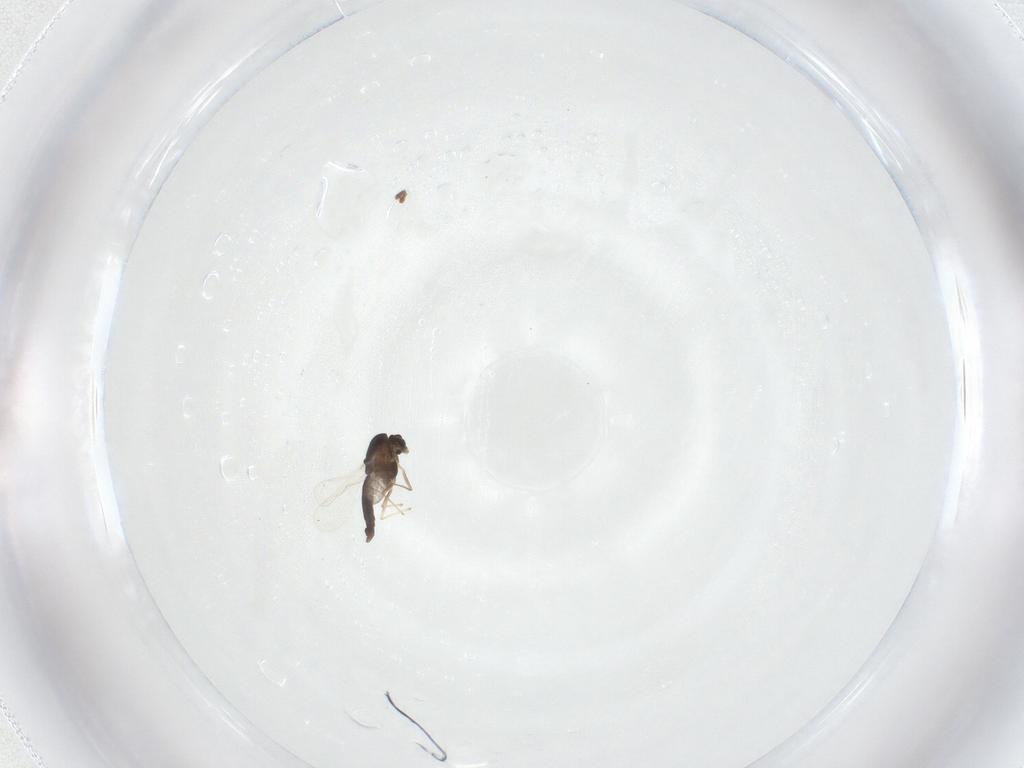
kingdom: Animalia
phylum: Arthropoda
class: Insecta
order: Diptera
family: Chironomidae
